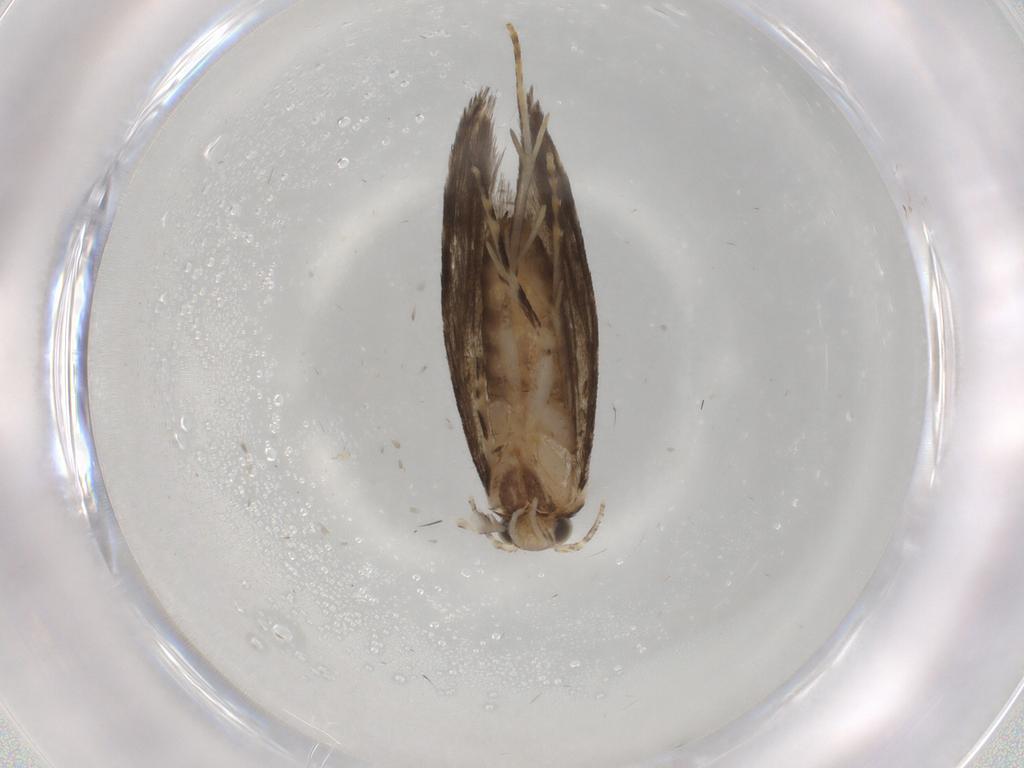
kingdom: Animalia
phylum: Arthropoda
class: Insecta
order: Lepidoptera
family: Tineidae
